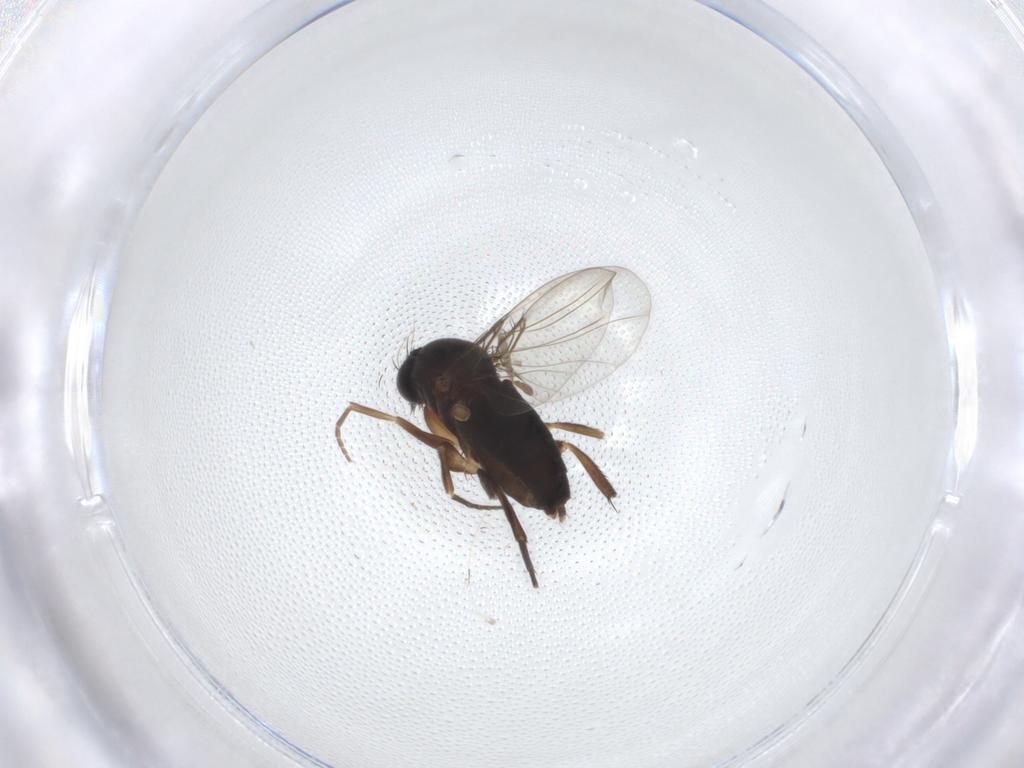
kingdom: Animalia
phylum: Arthropoda
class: Insecta
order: Diptera
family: Phoridae
